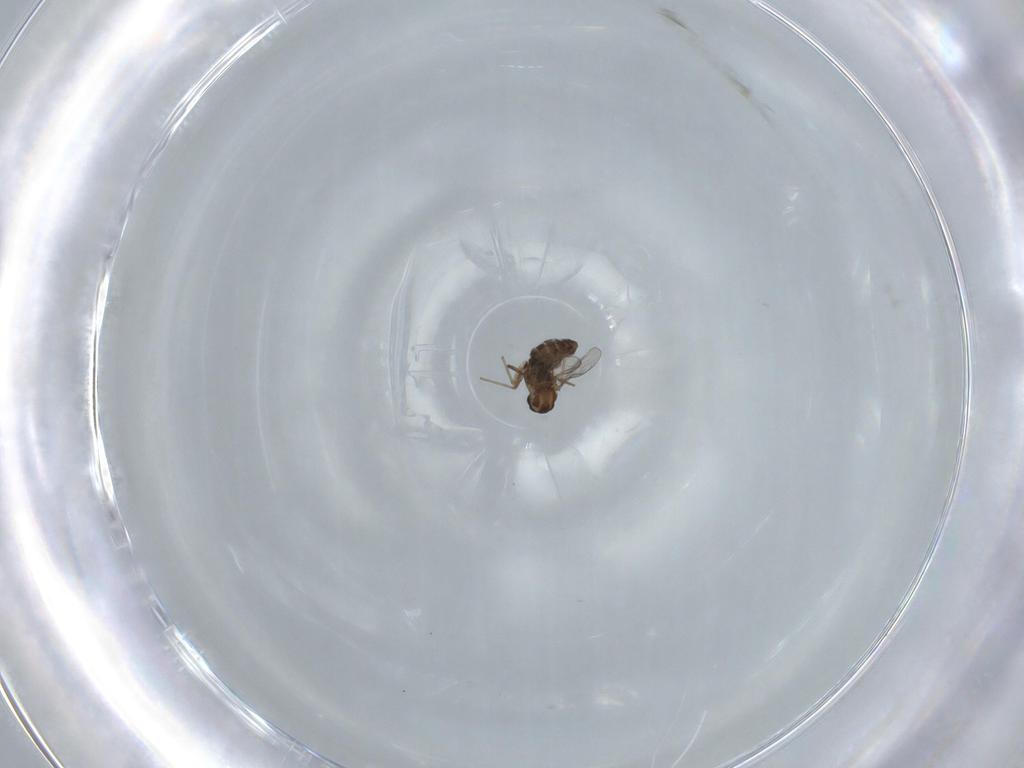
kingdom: Animalia
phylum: Arthropoda
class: Insecta
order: Diptera
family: Chironomidae
